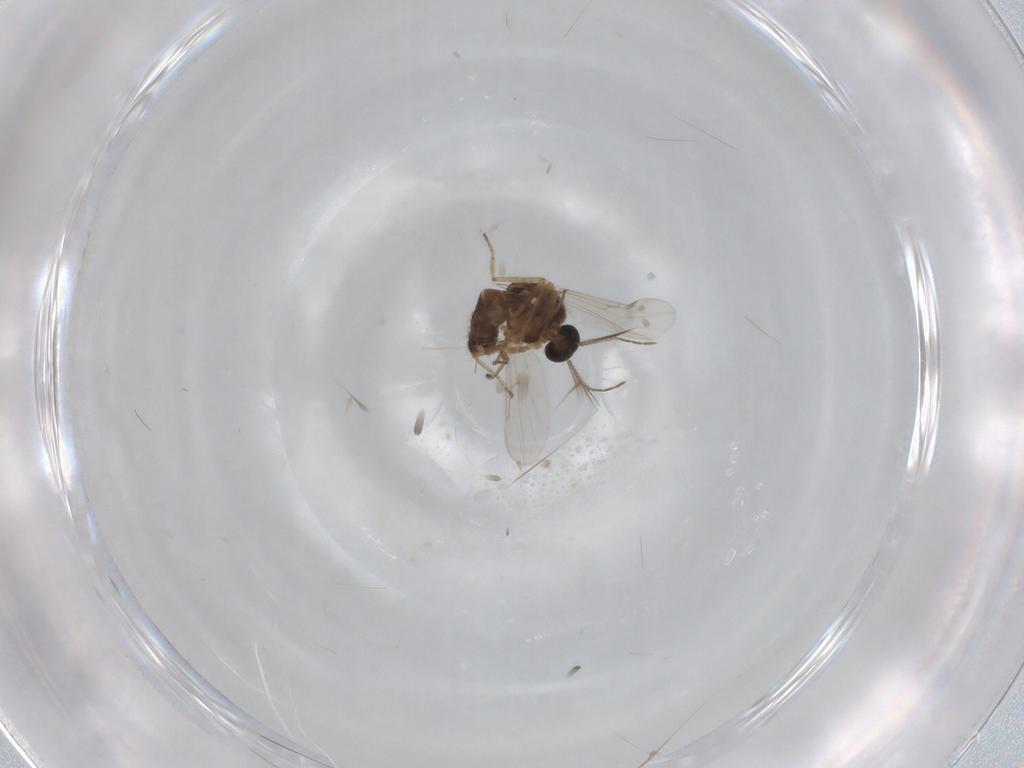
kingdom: Animalia
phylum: Arthropoda
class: Insecta
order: Diptera
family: Ceratopogonidae
